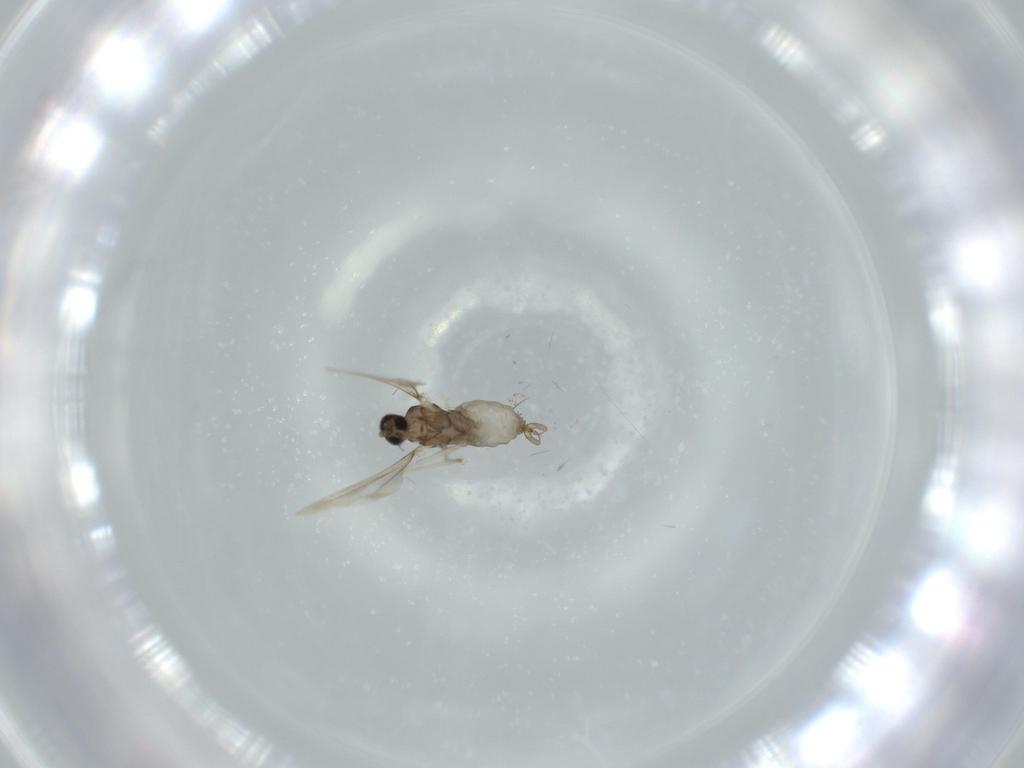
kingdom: Animalia
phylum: Arthropoda
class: Insecta
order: Diptera
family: Cecidomyiidae
